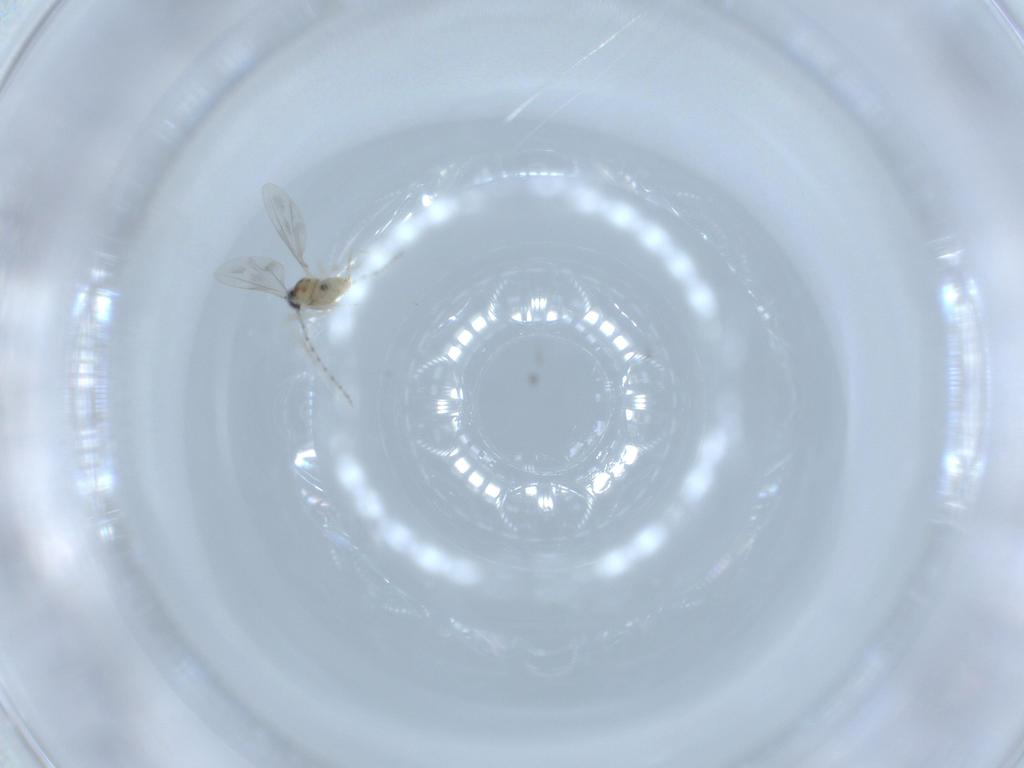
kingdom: Animalia
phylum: Arthropoda
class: Insecta
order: Diptera
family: Cecidomyiidae
